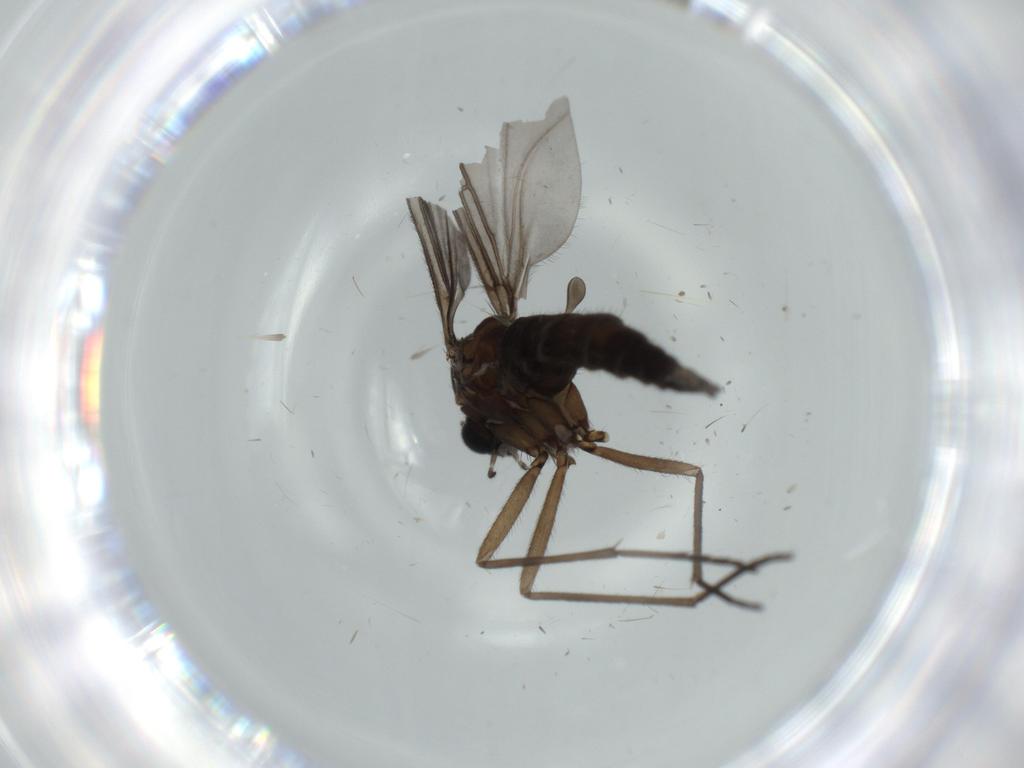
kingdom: Animalia
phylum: Arthropoda
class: Insecta
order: Diptera
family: Sciaridae
